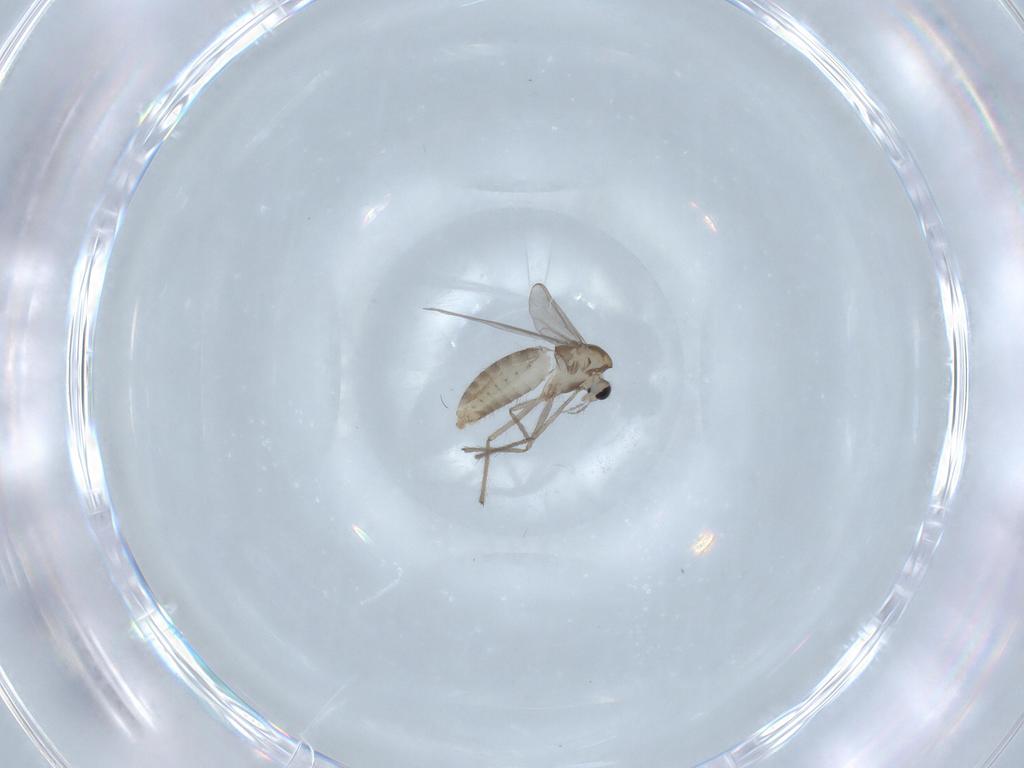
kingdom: Animalia
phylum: Arthropoda
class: Insecta
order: Diptera
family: Chironomidae
